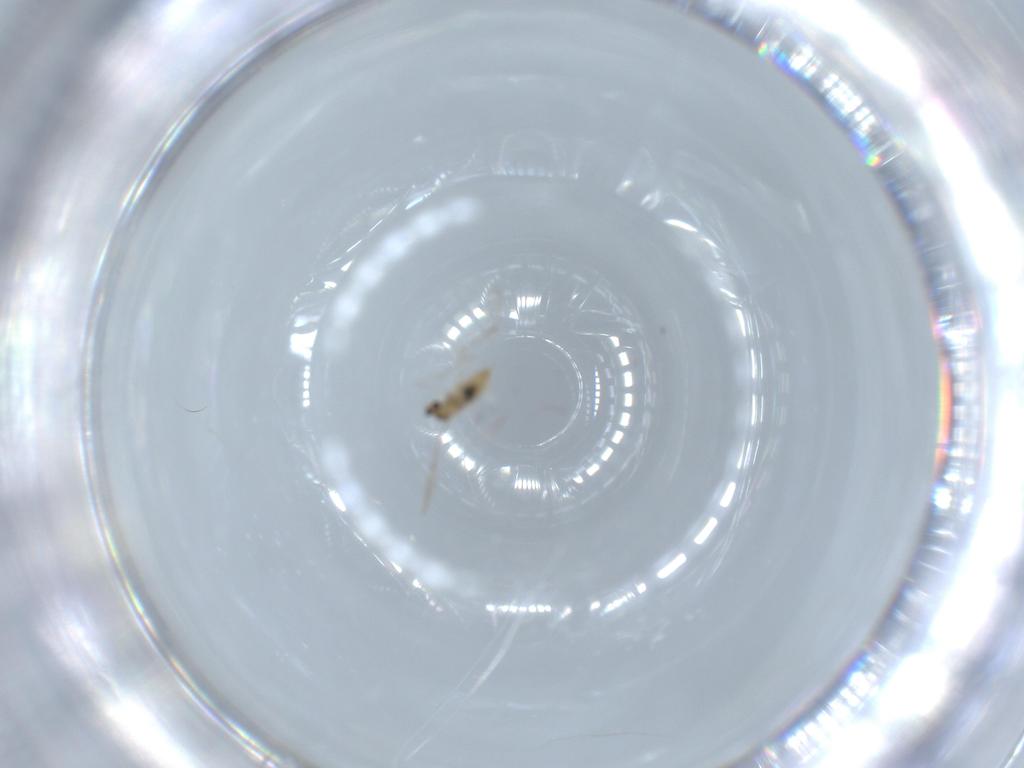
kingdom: Animalia
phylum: Arthropoda
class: Insecta
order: Diptera
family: Cecidomyiidae
